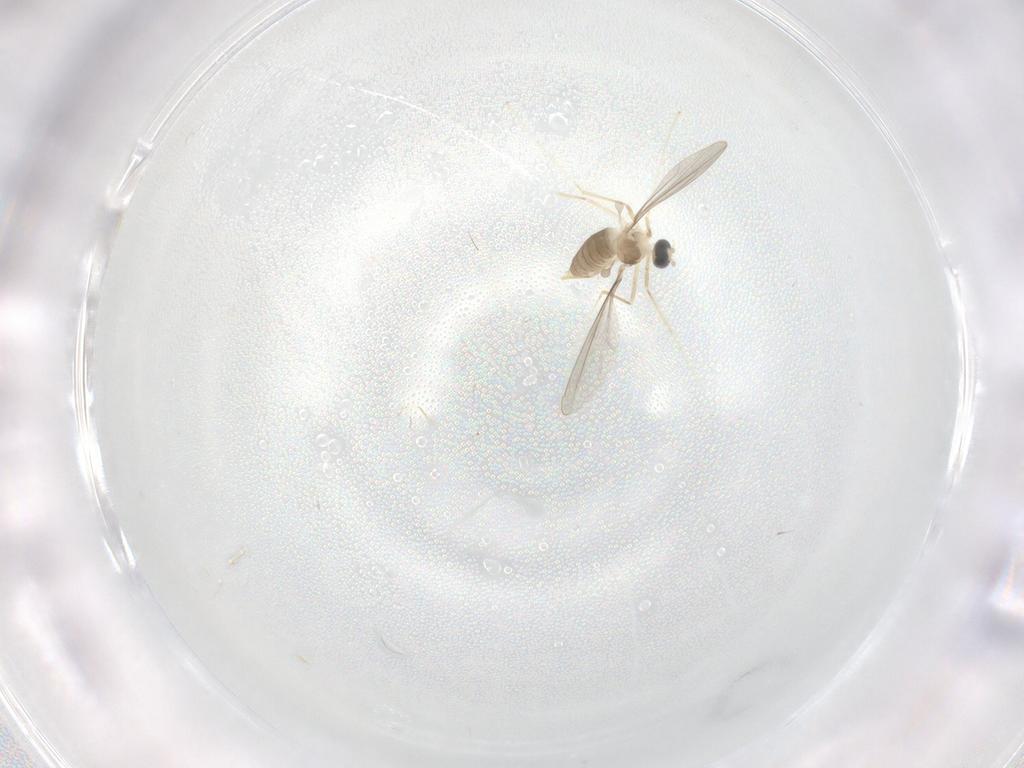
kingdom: Animalia
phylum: Arthropoda
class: Insecta
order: Diptera
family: Cecidomyiidae
